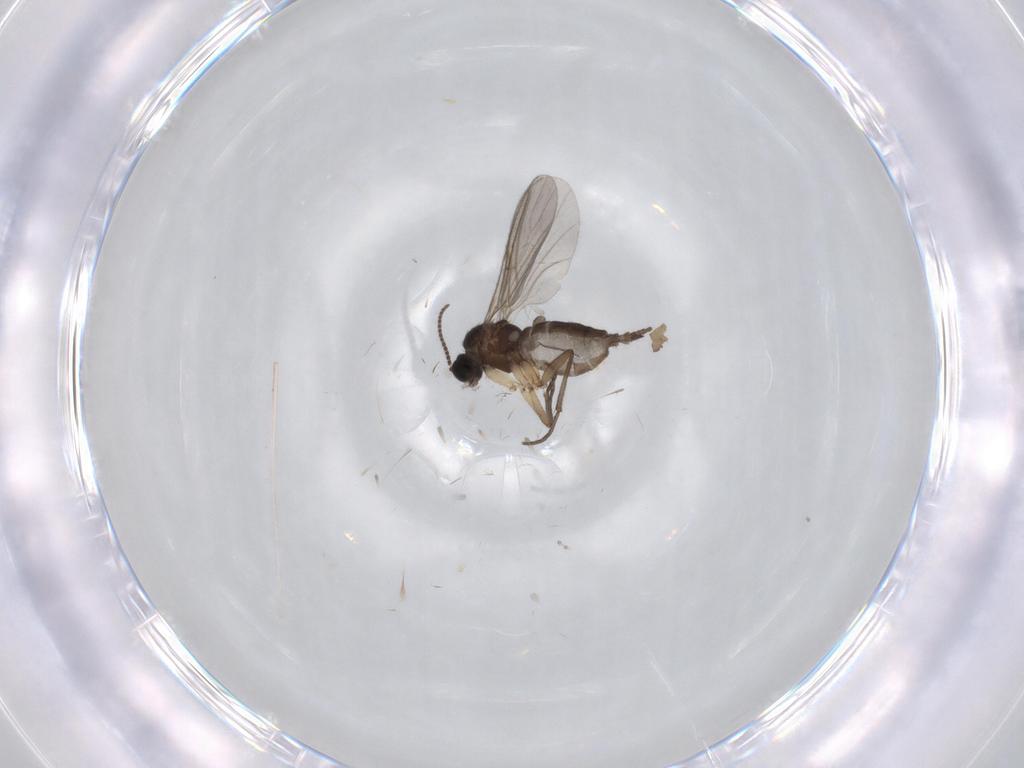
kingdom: Animalia
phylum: Arthropoda
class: Insecta
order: Diptera
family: Sciaridae
